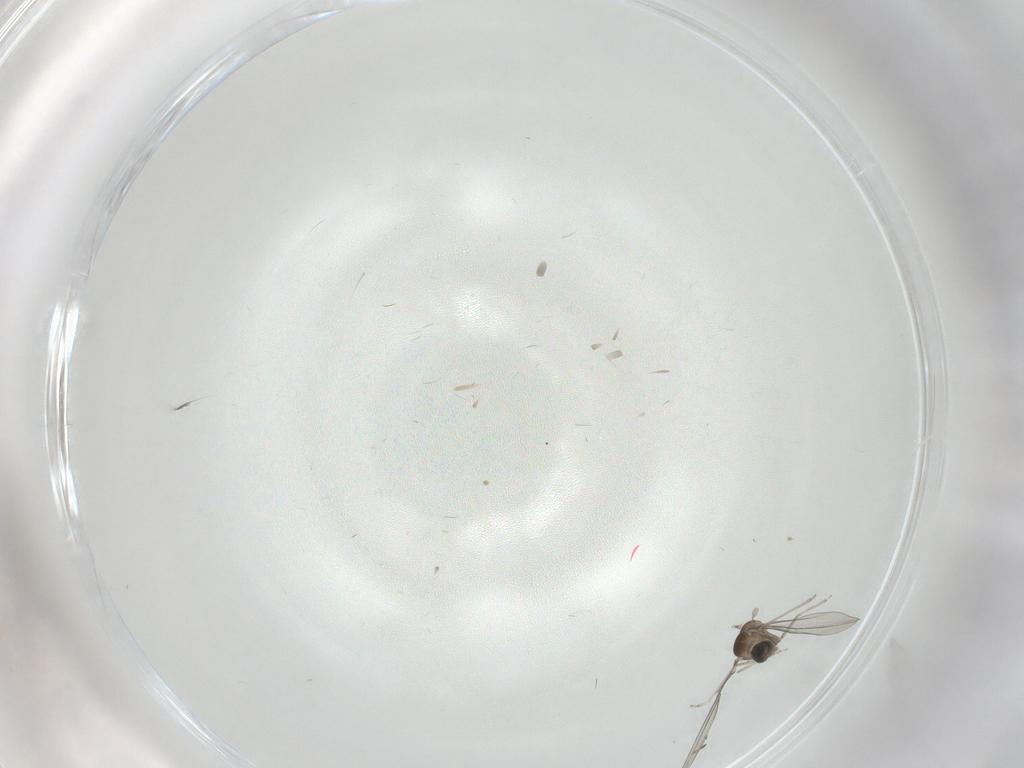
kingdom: Animalia
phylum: Arthropoda
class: Insecta
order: Diptera
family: Cecidomyiidae
